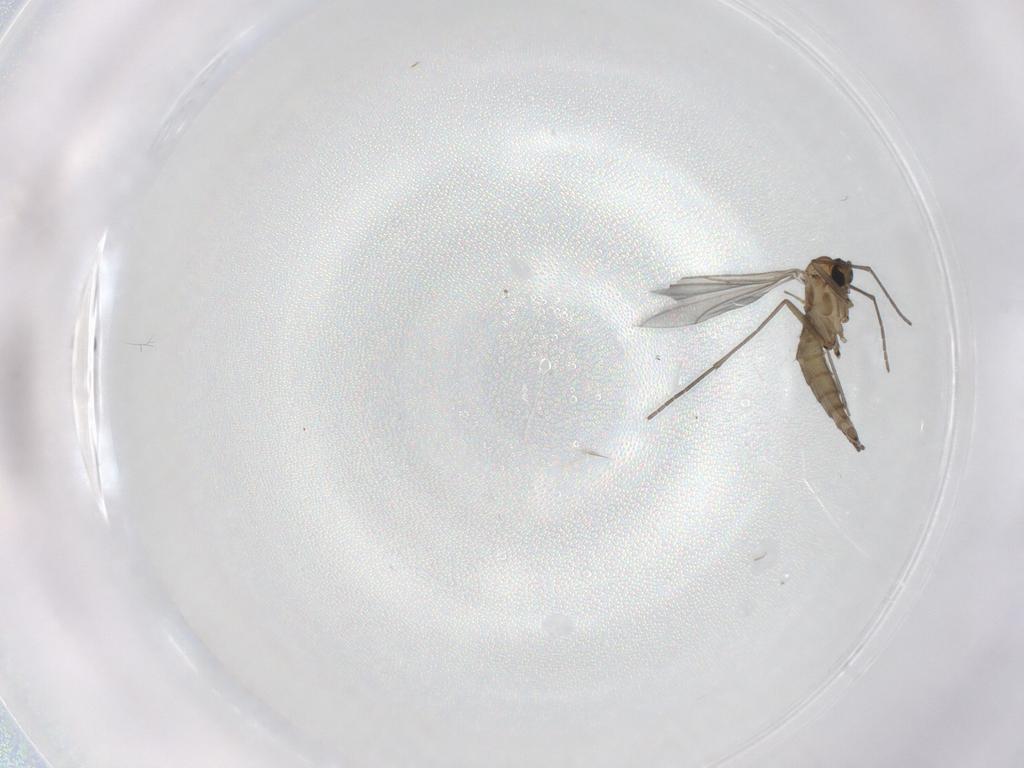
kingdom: Animalia
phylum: Arthropoda
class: Insecta
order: Diptera
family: Sciaridae
